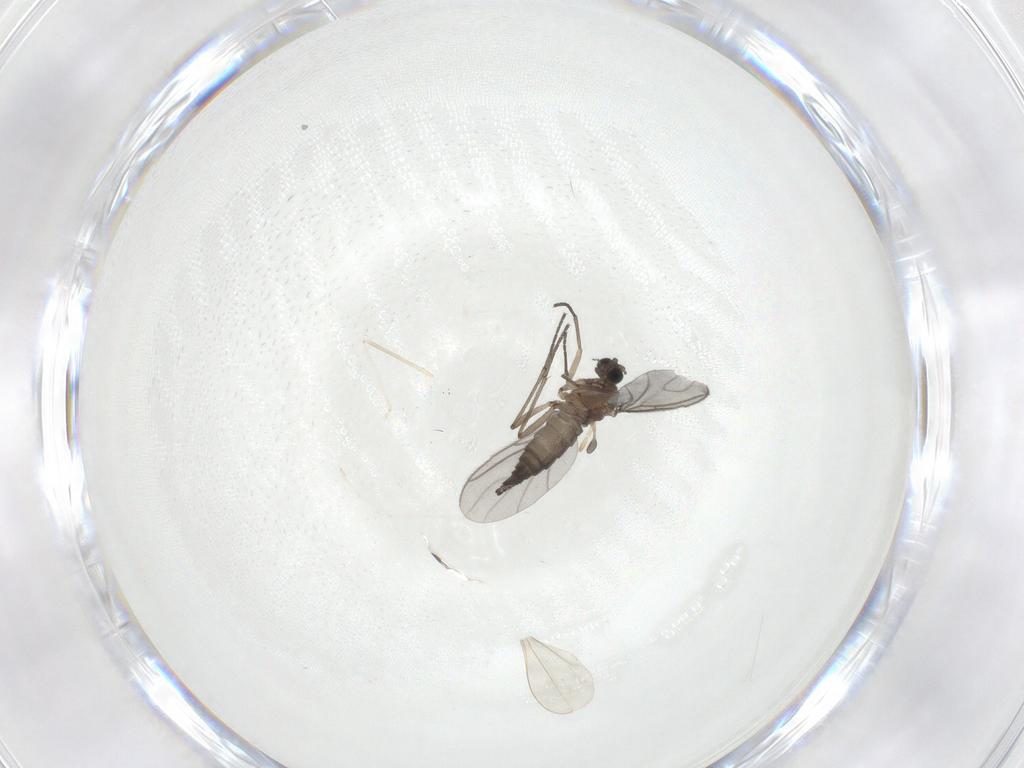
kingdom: Animalia
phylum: Arthropoda
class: Insecta
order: Diptera
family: Sciaridae
